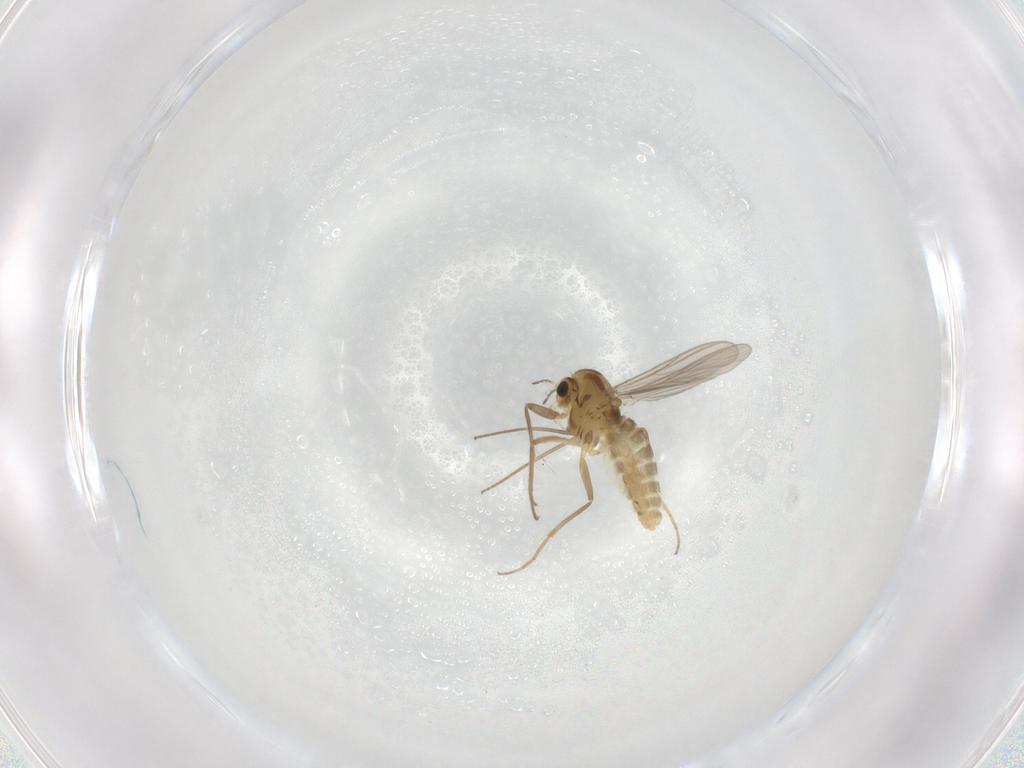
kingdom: Animalia
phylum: Arthropoda
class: Insecta
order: Diptera
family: Chironomidae
